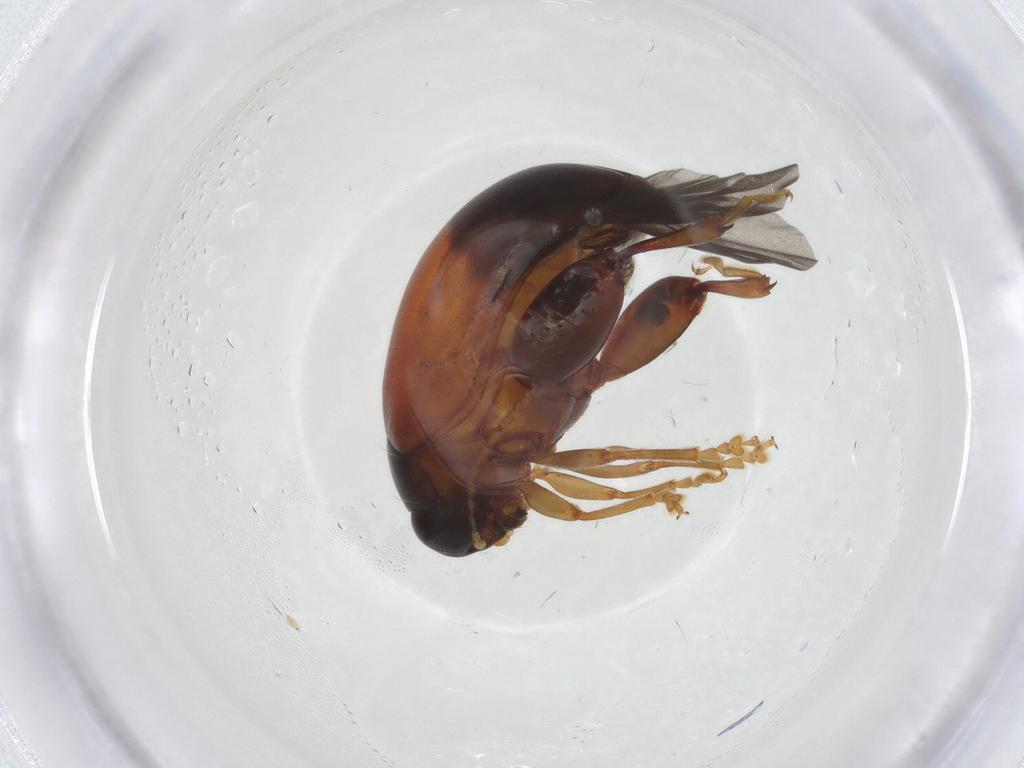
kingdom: Animalia
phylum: Arthropoda
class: Insecta
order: Coleoptera
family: Chrysomelidae
